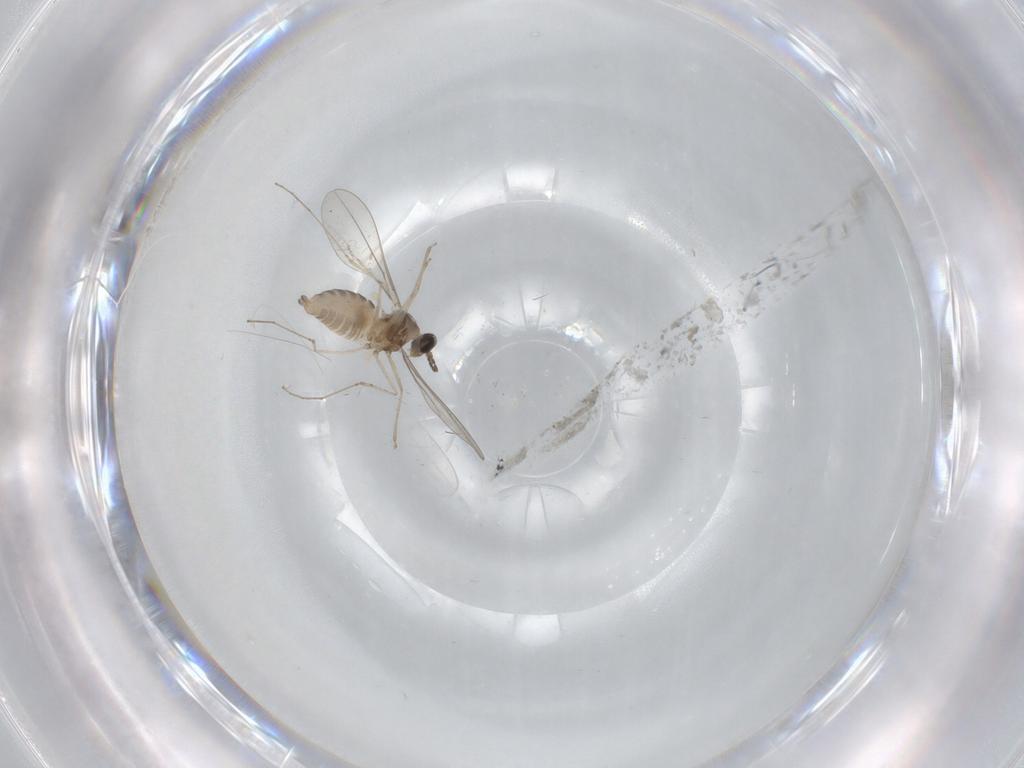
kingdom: Animalia
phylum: Arthropoda
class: Insecta
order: Diptera
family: Cecidomyiidae
